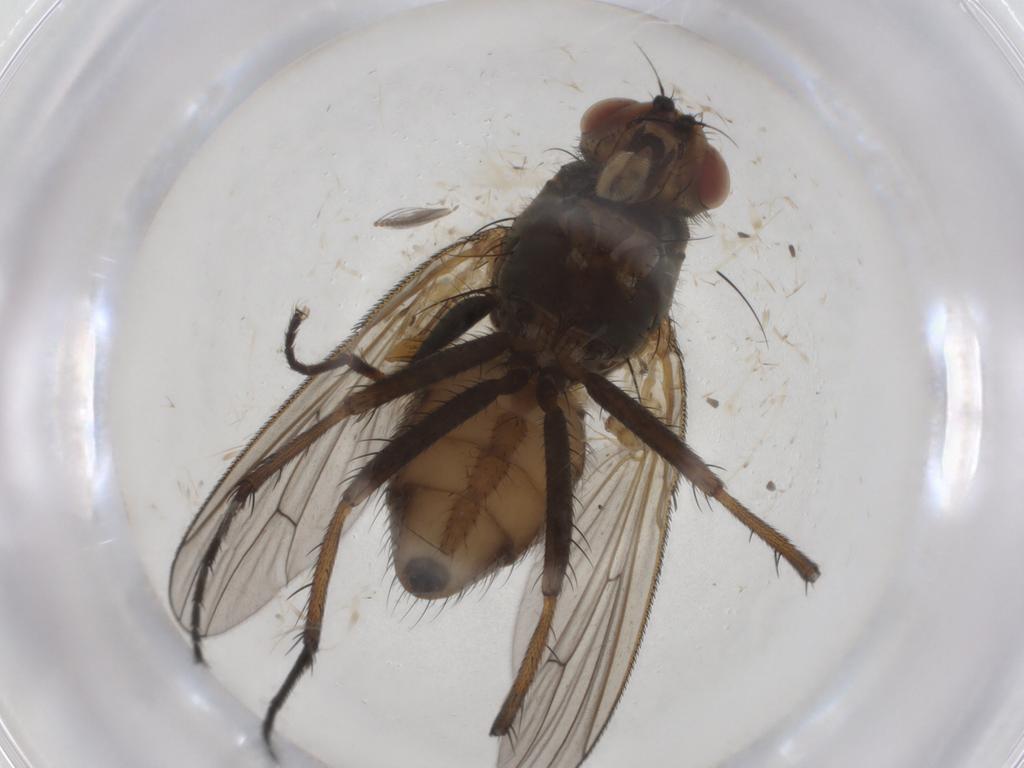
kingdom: Animalia
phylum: Arthropoda
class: Insecta
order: Diptera
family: Anthomyiidae
